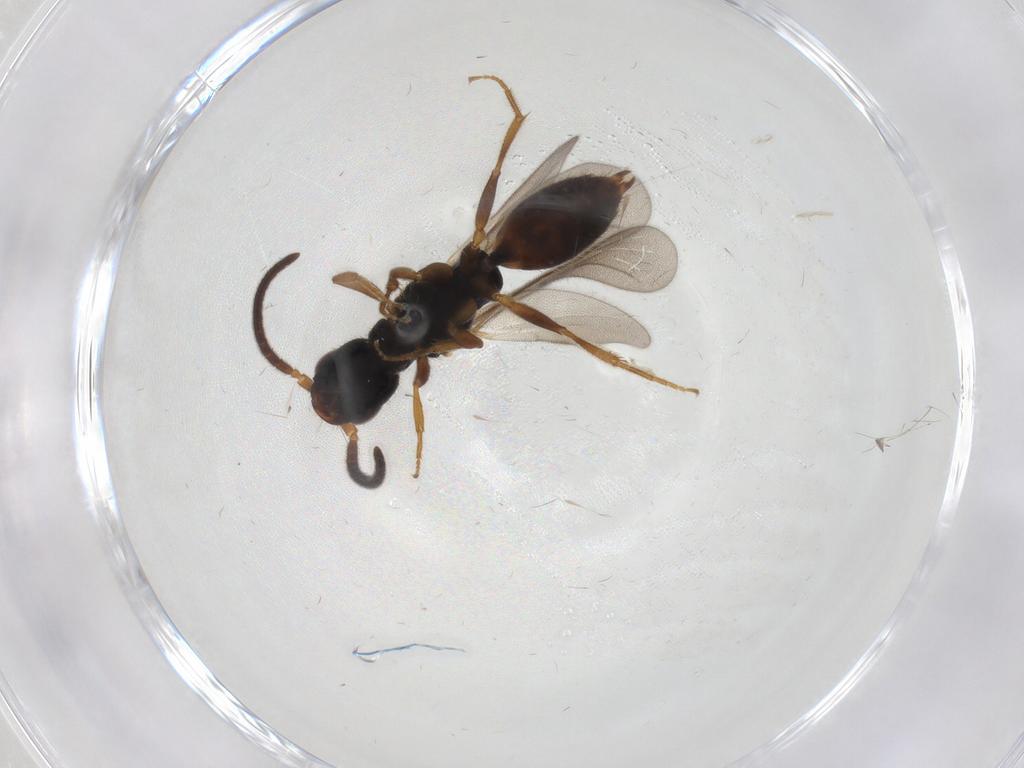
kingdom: Animalia
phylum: Arthropoda
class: Insecta
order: Hymenoptera
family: Bethylidae
